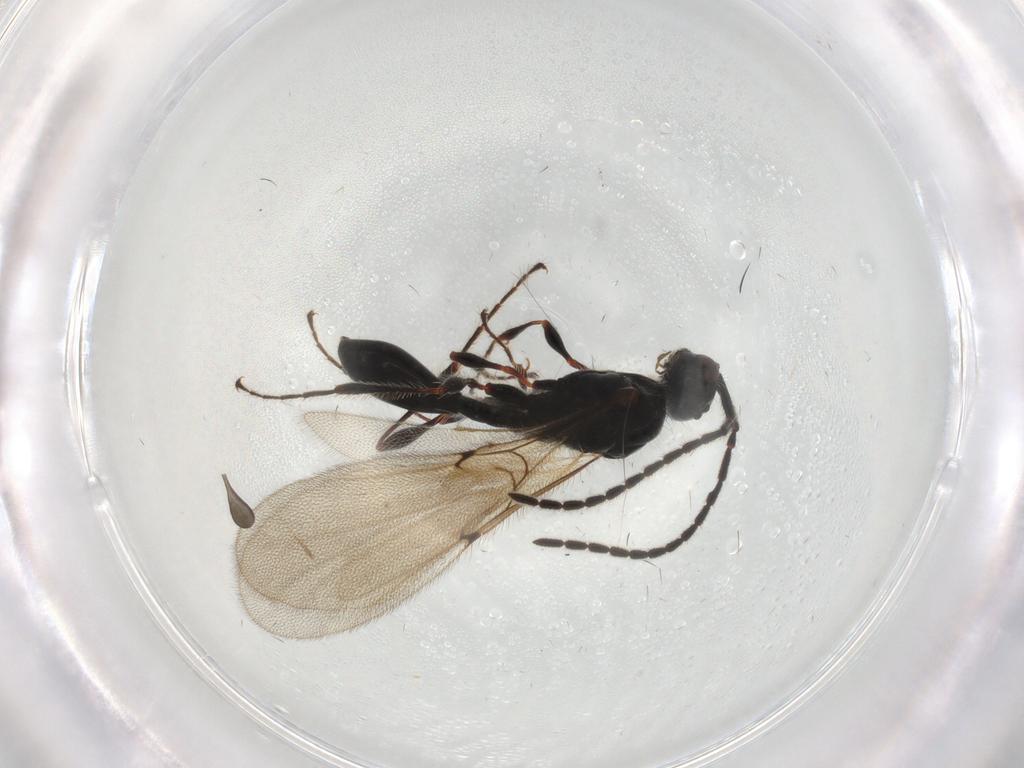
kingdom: Animalia
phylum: Arthropoda
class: Insecta
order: Hymenoptera
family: Diapriidae
